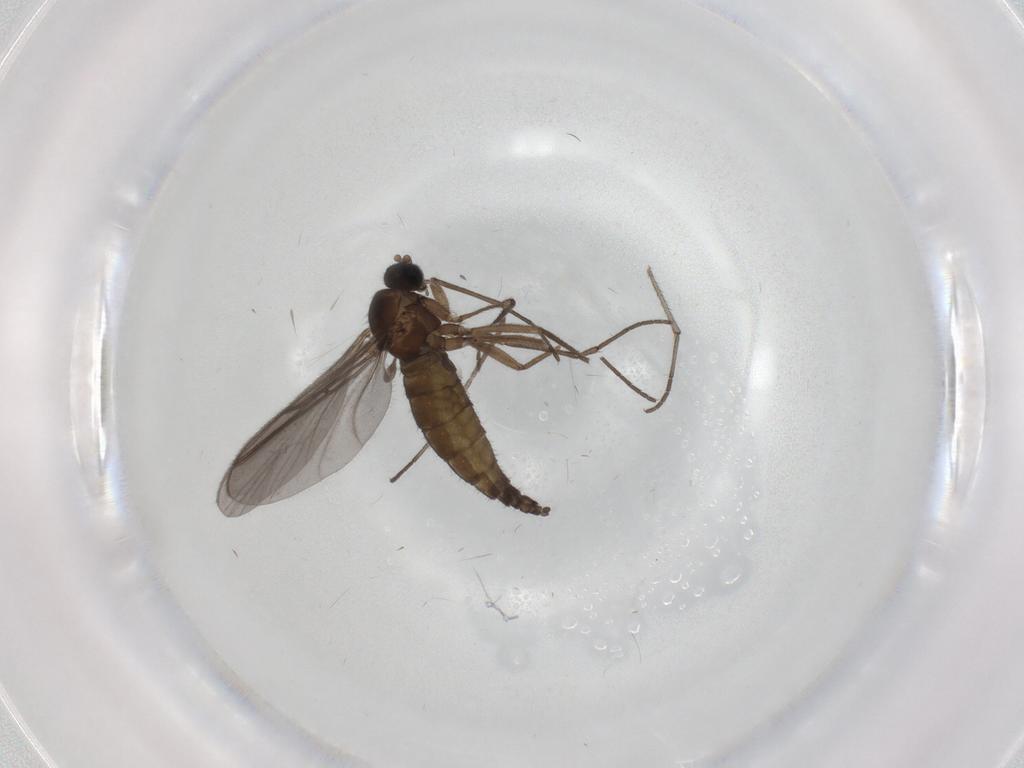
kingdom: Animalia
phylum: Arthropoda
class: Insecta
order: Diptera
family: Sciaridae
